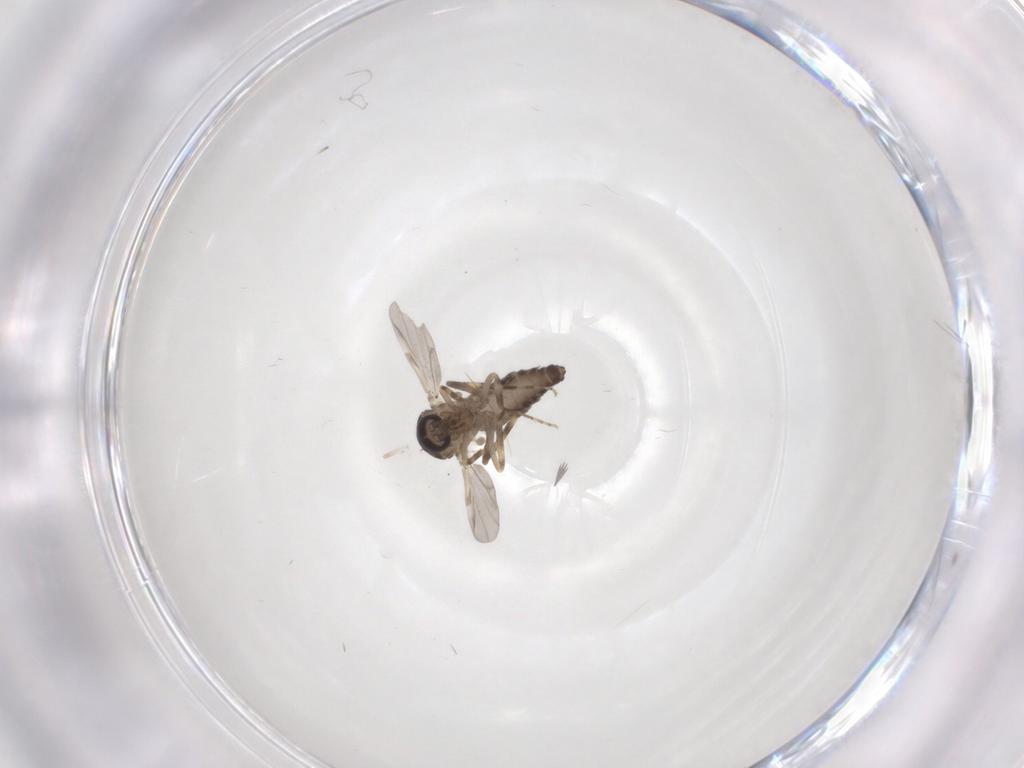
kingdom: Animalia
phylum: Arthropoda
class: Insecta
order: Diptera
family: Ceratopogonidae
